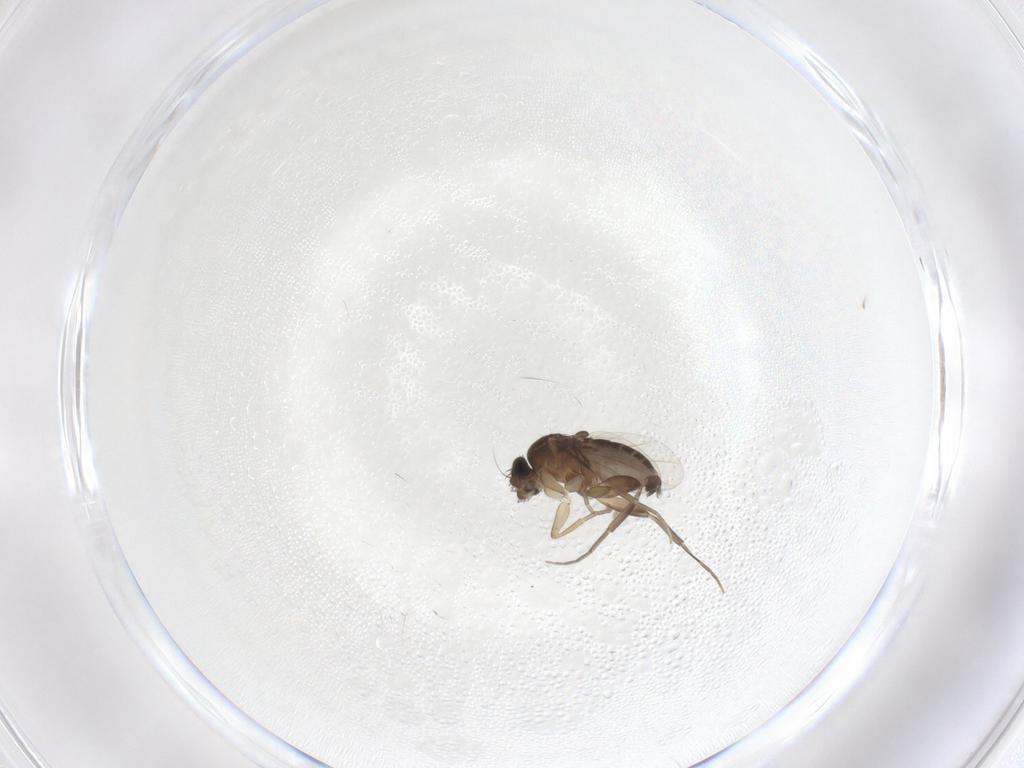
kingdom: Animalia
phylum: Arthropoda
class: Insecta
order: Diptera
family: Phoridae
